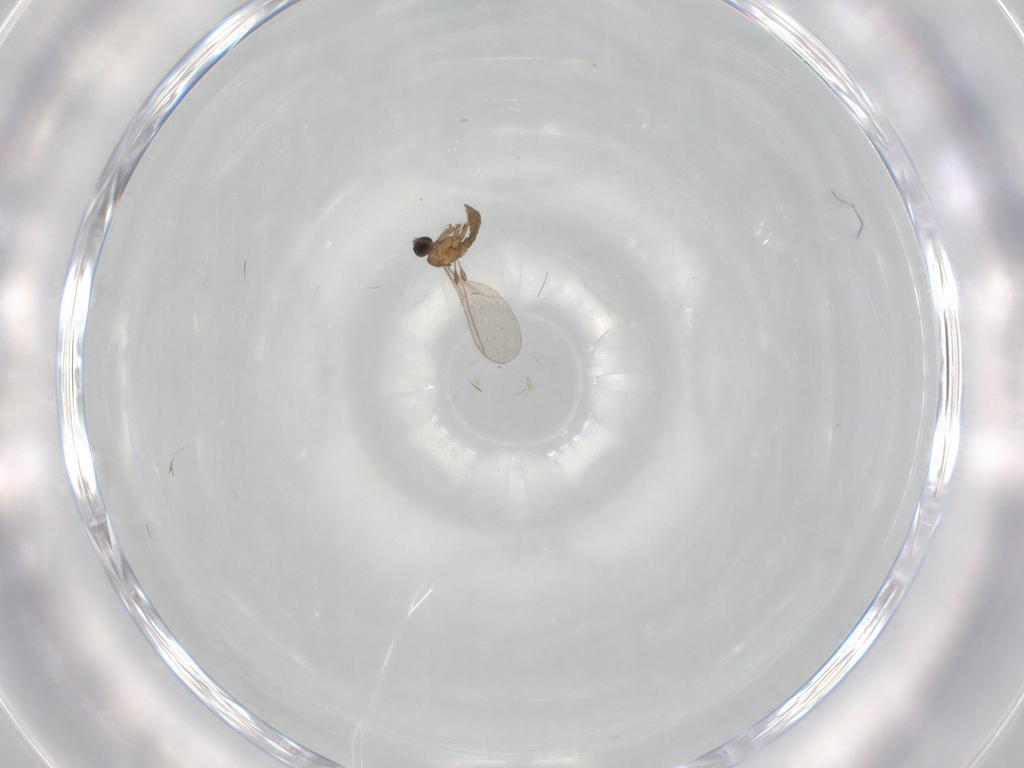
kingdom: Animalia
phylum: Arthropoda
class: Insecta
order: Diptera
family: Sciaridae
